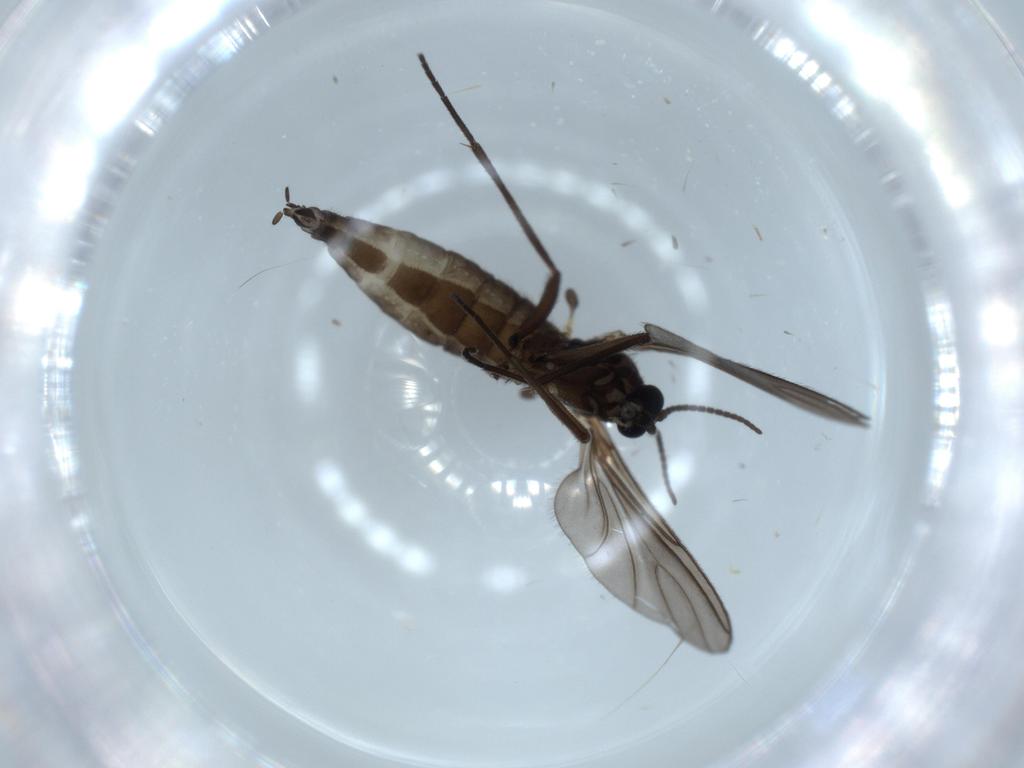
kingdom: Animalia
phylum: Arthropoda
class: Insecta
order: Diptera
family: Sciaridae
